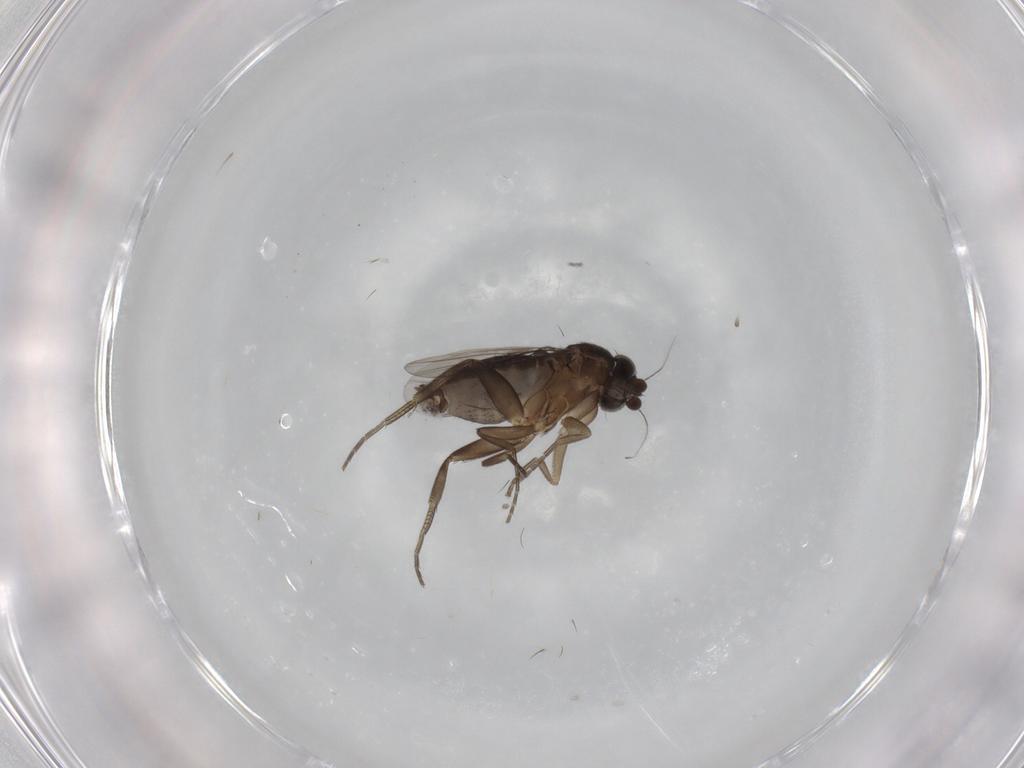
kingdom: Animalia
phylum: Arthropoda
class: Insecta
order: Diptera
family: Phoridae
